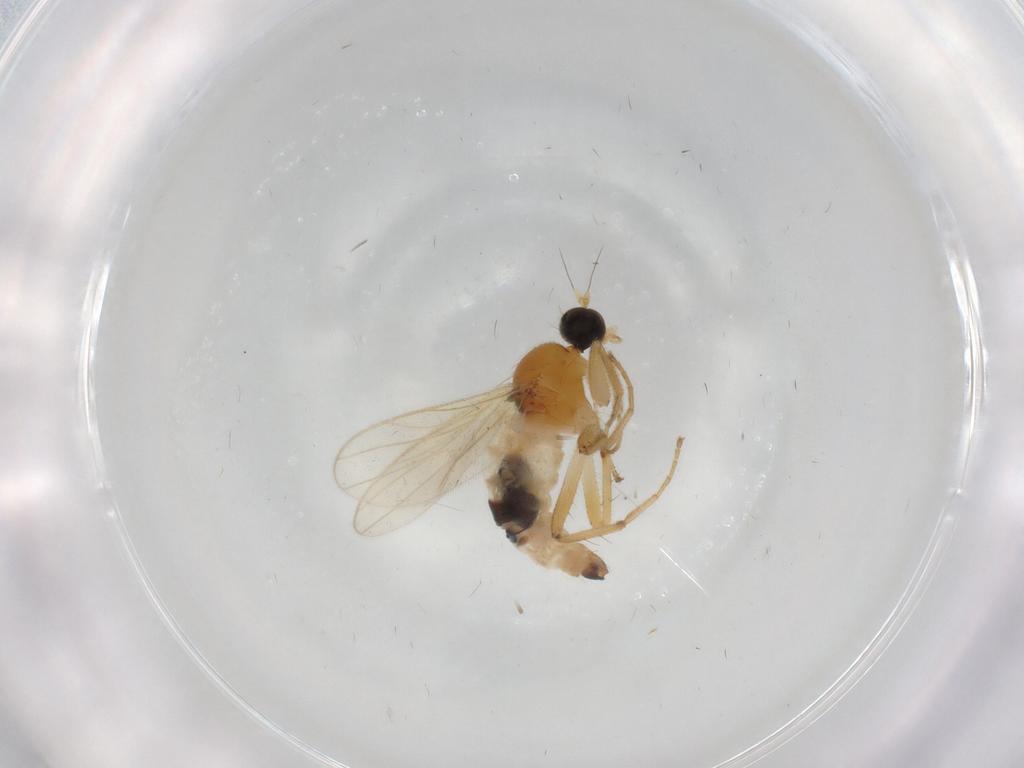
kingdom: Animalia
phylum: Arthropoda
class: Insecta
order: Diptera
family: Hybotidae
